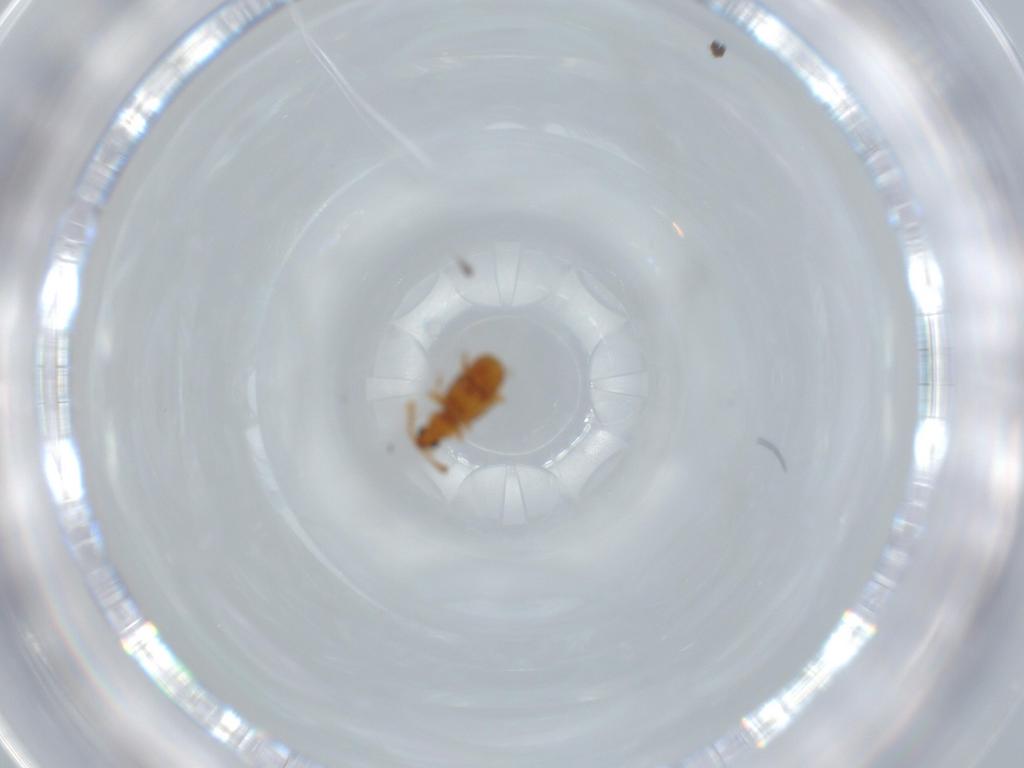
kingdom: Animalia
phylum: Arthropoda
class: Insecta
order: Coleoptera
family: Staphylinidae
